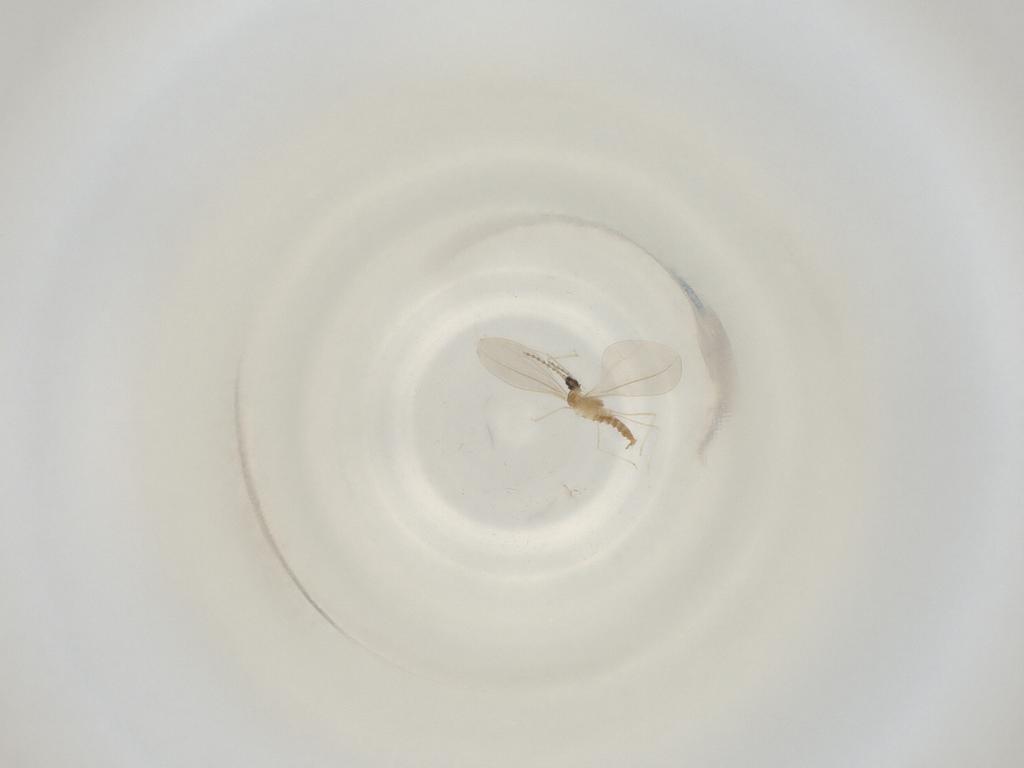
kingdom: Animalia
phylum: Arthropoda
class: Insecta
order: Diptera
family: Cecidomyiidae
